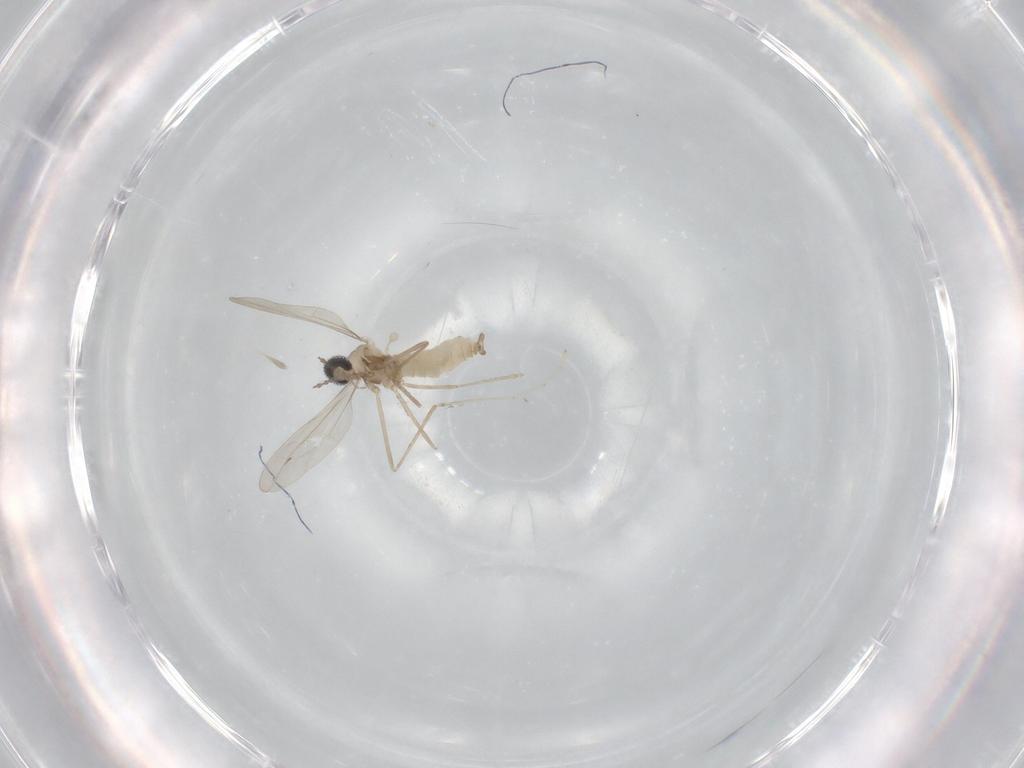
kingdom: Animalia
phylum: Arthropoda
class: Insecta
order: Diptera
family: Cecidomyiidae
